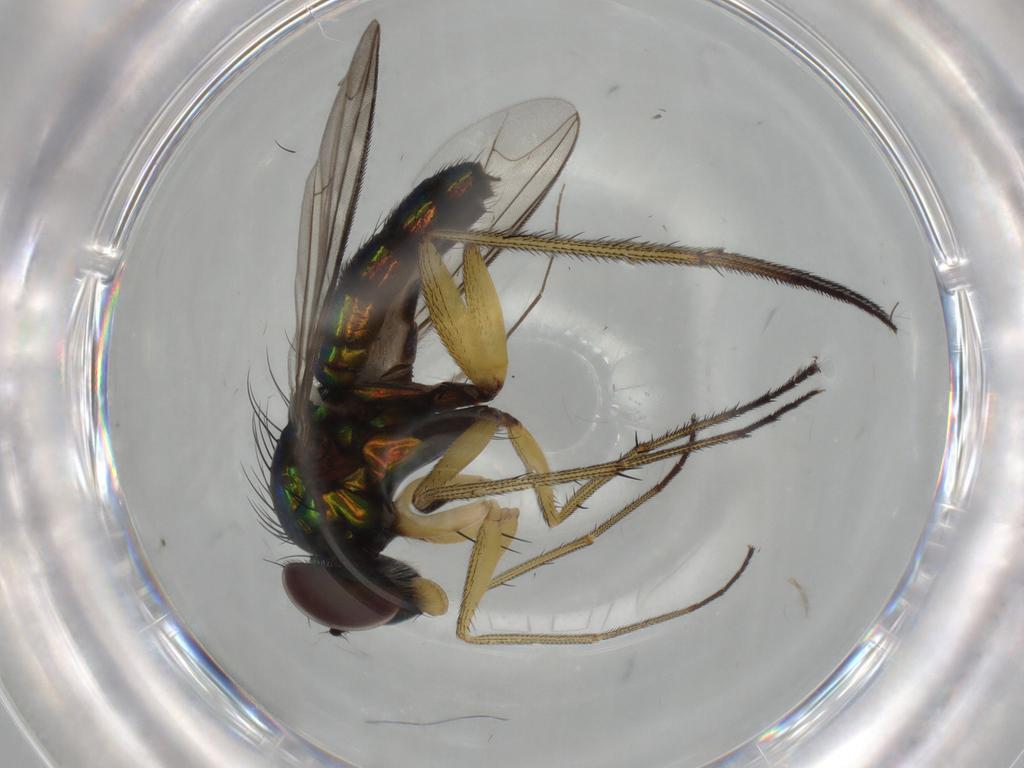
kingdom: Animalia
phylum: Arthropoda
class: Insecta
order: Diptera
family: Dolichopodidae
